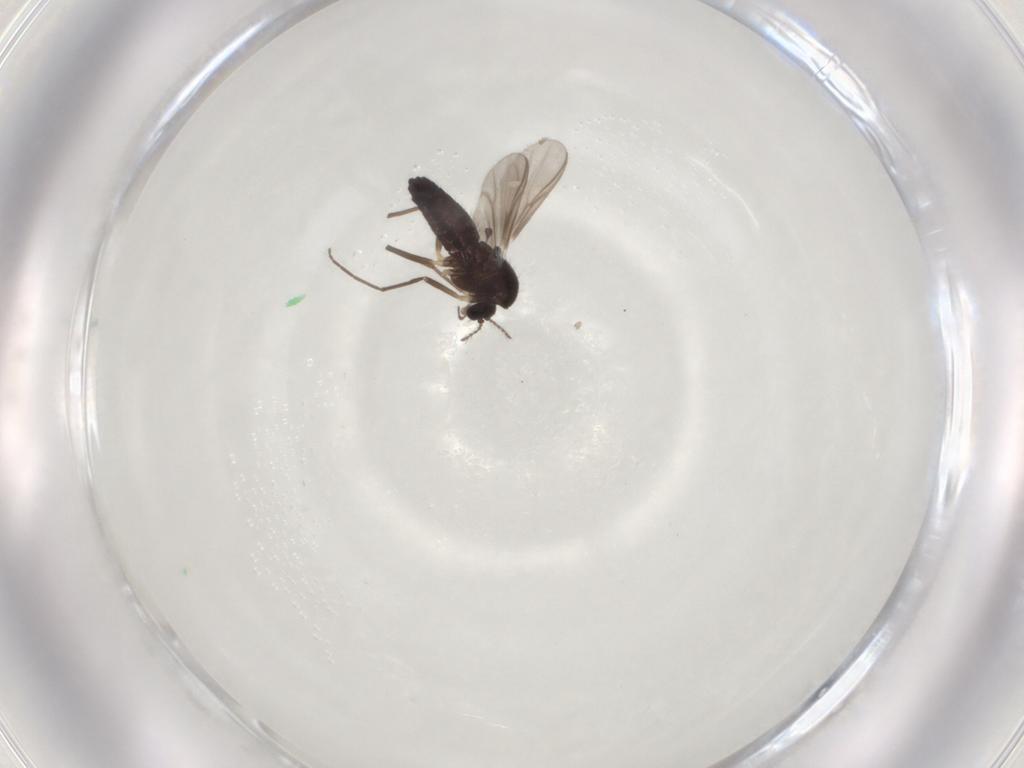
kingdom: Animalia
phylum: Arthropoda
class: Insecta
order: Diptera
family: Chironomidae
